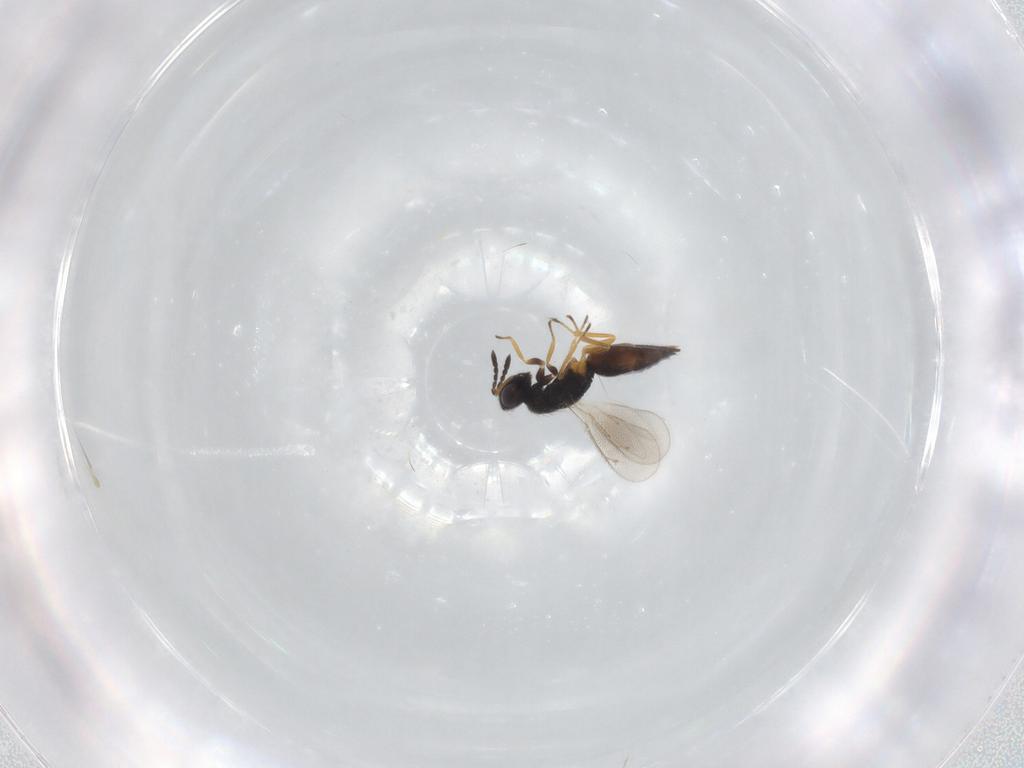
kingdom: Animalia
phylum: Arthropoda
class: Insecta
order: Hymenoptera
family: Eulophidae
